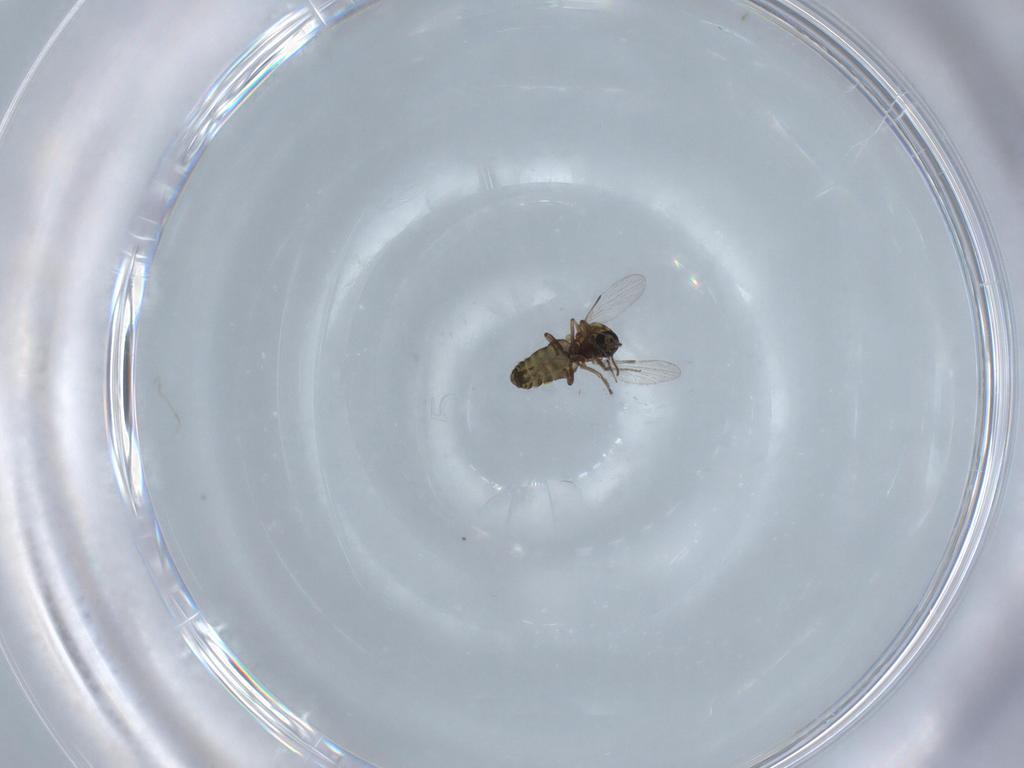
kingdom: Animalia
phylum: Arthropoda
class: Insecta
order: Diptera
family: Ceratopogonidae
